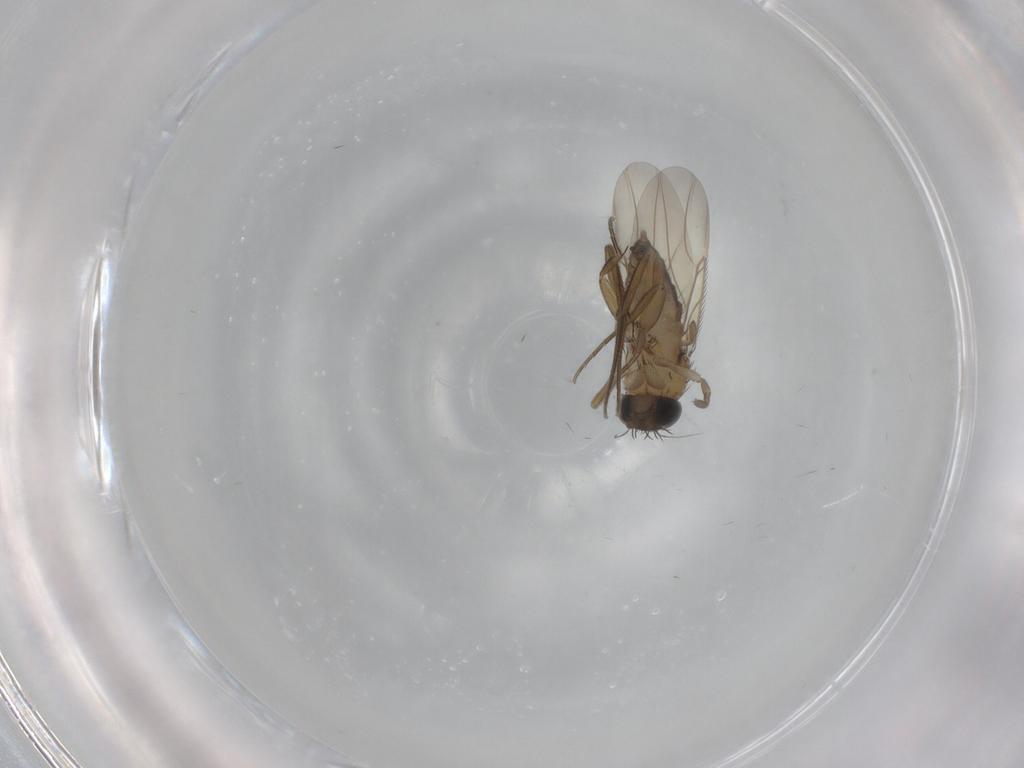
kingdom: Animalia
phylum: Arthropoda
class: Insecta
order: Diptera
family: Phoridae
